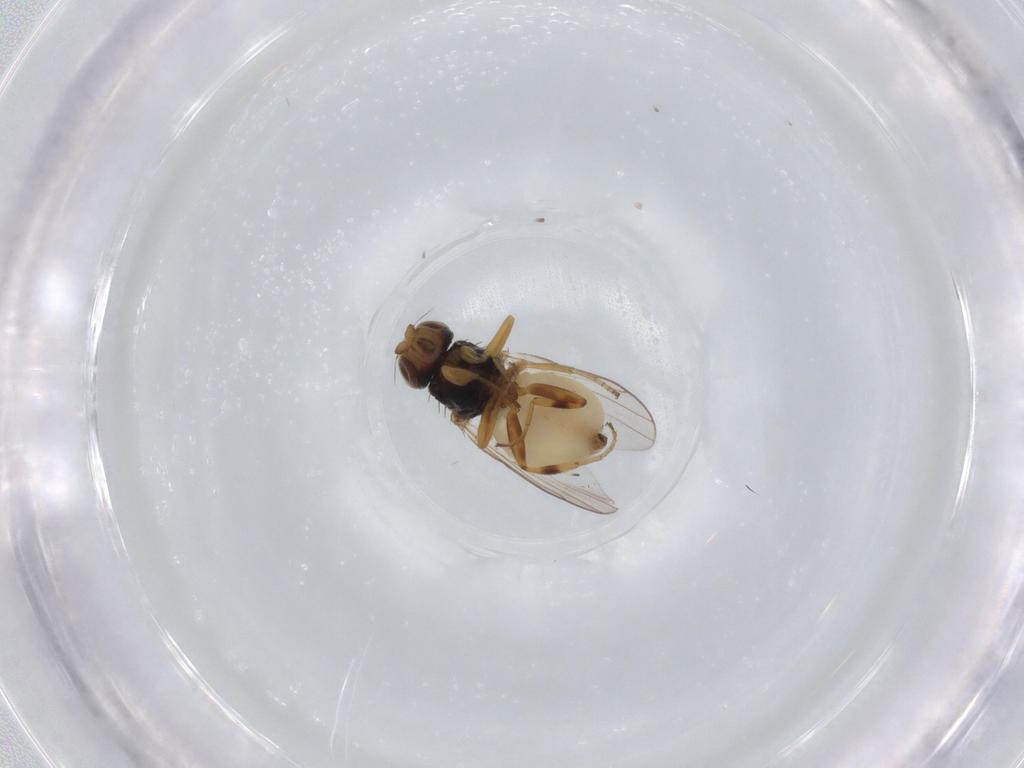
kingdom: Animalia
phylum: Arthropoda
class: Insecta
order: Diptera
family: Chloropidae
